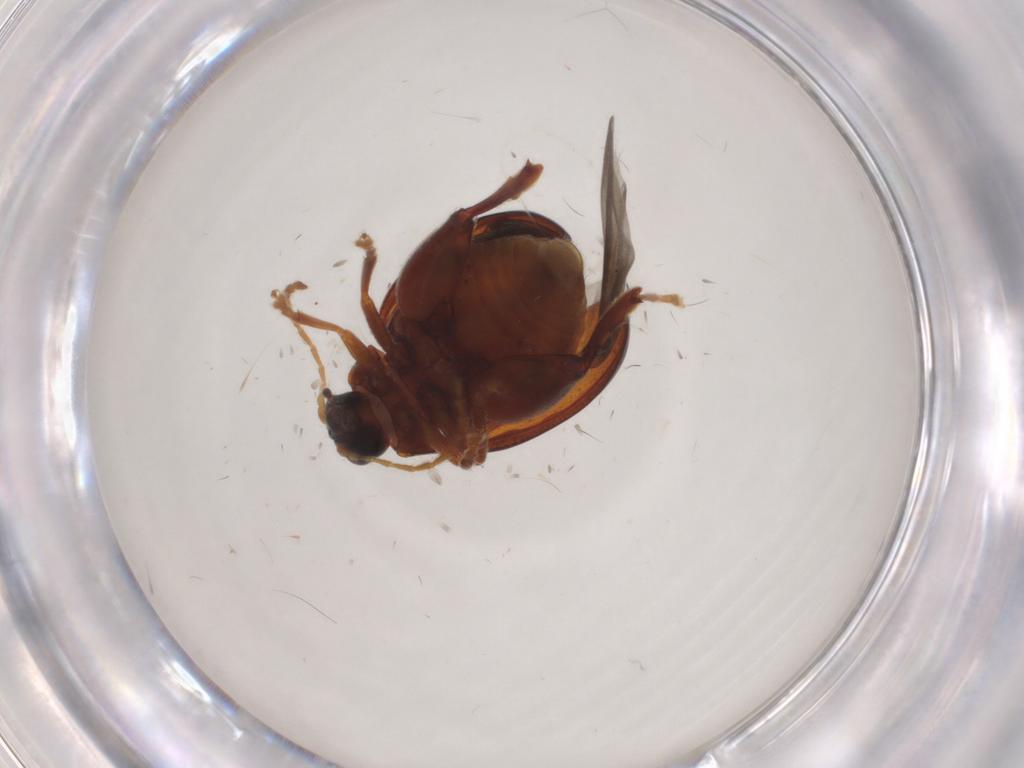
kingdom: Animalia
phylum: Arthropoda
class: Insecta
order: Coleoptera
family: Chrysomelidae
